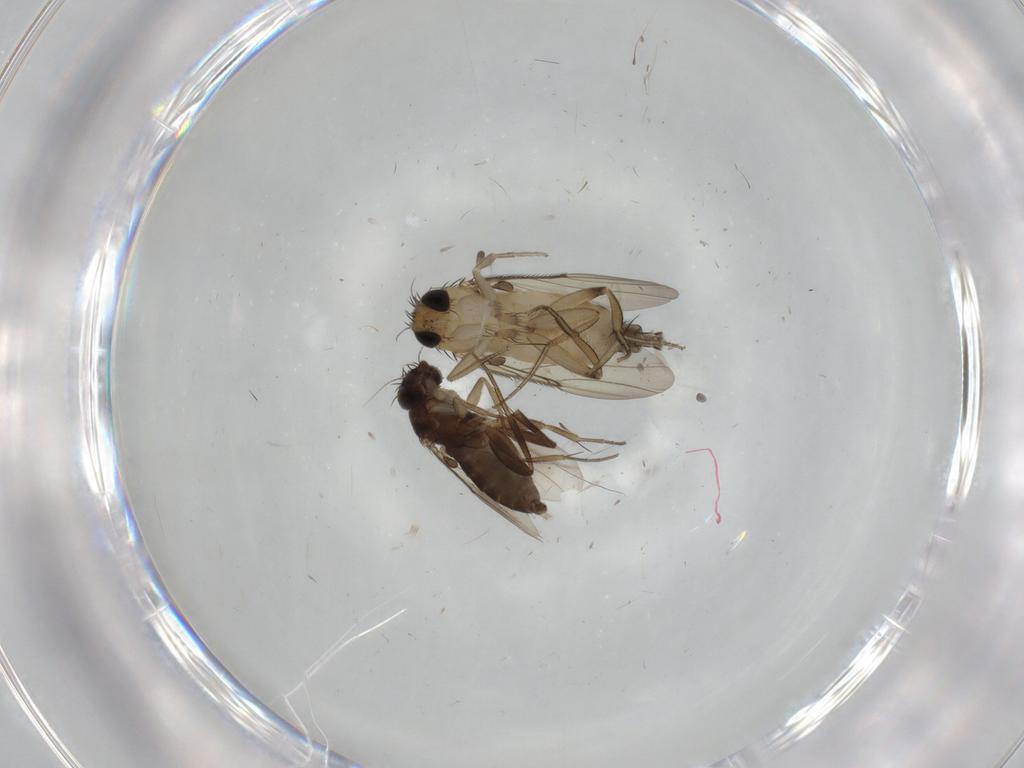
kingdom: Animalia
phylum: Arthropoda
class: Insecta
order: Diptera
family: Phoridae
